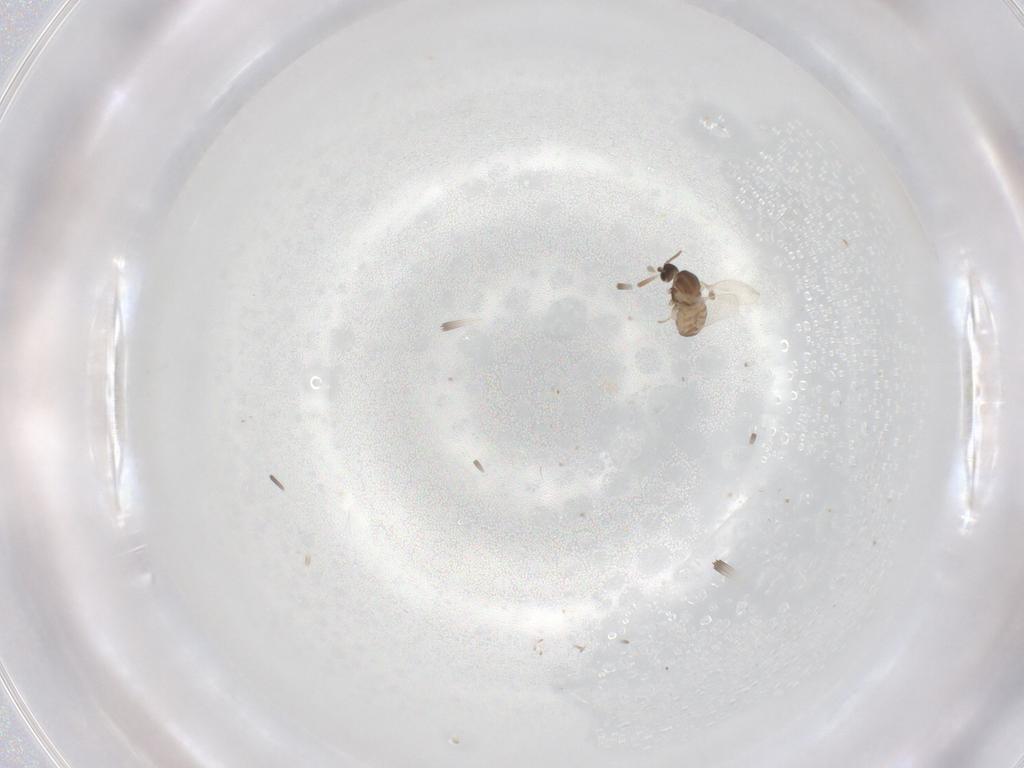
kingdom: Animalia
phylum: Arthropoda
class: Insecta
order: Diptera
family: Cecidomyiidae
